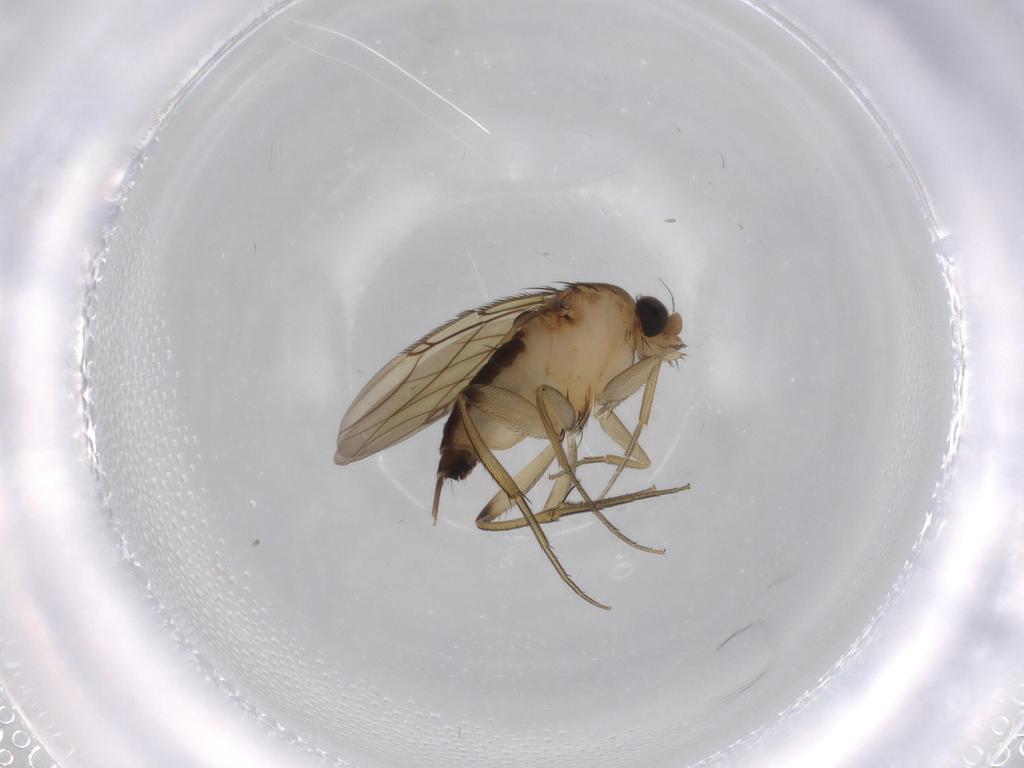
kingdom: Animalia
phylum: Arthropoda
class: Insecta
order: Diptera
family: Phoridae
